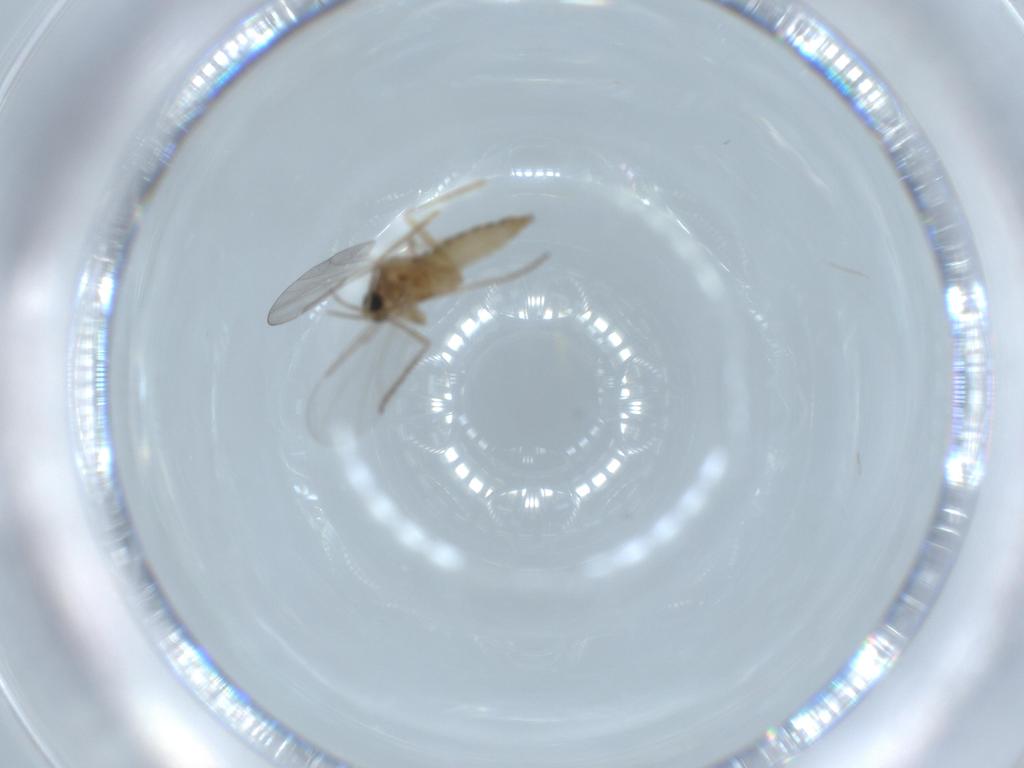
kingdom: Animalia
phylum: Arthropoda
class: Insecta
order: Diptera
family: Cecidomyiidae
